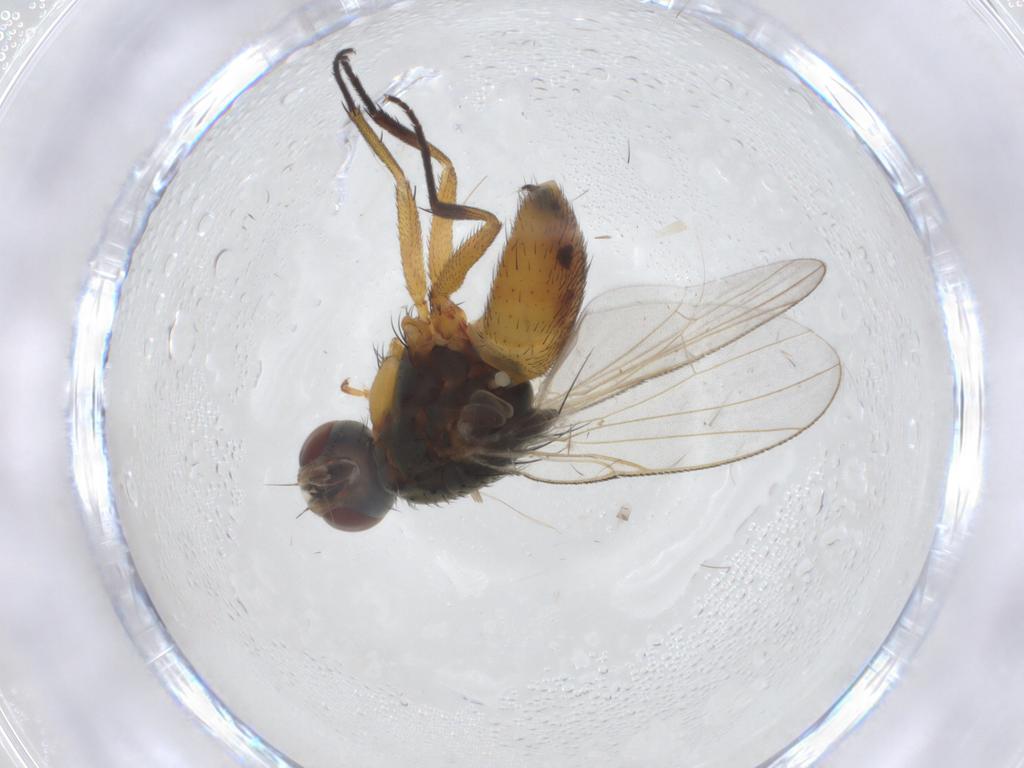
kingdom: Animalia
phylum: Arthropoda
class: Insecta
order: Diptera
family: Muscidae
